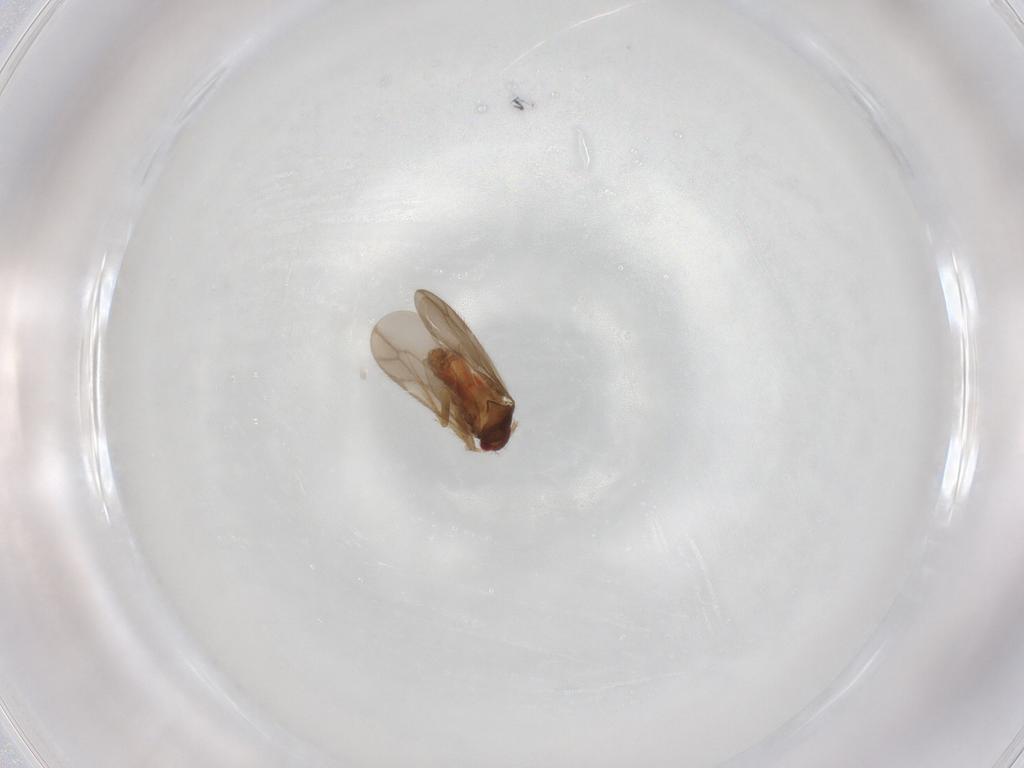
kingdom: Animalia
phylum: Arthropoda
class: Insecta
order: Hemiptera
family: Ceratocombidae
